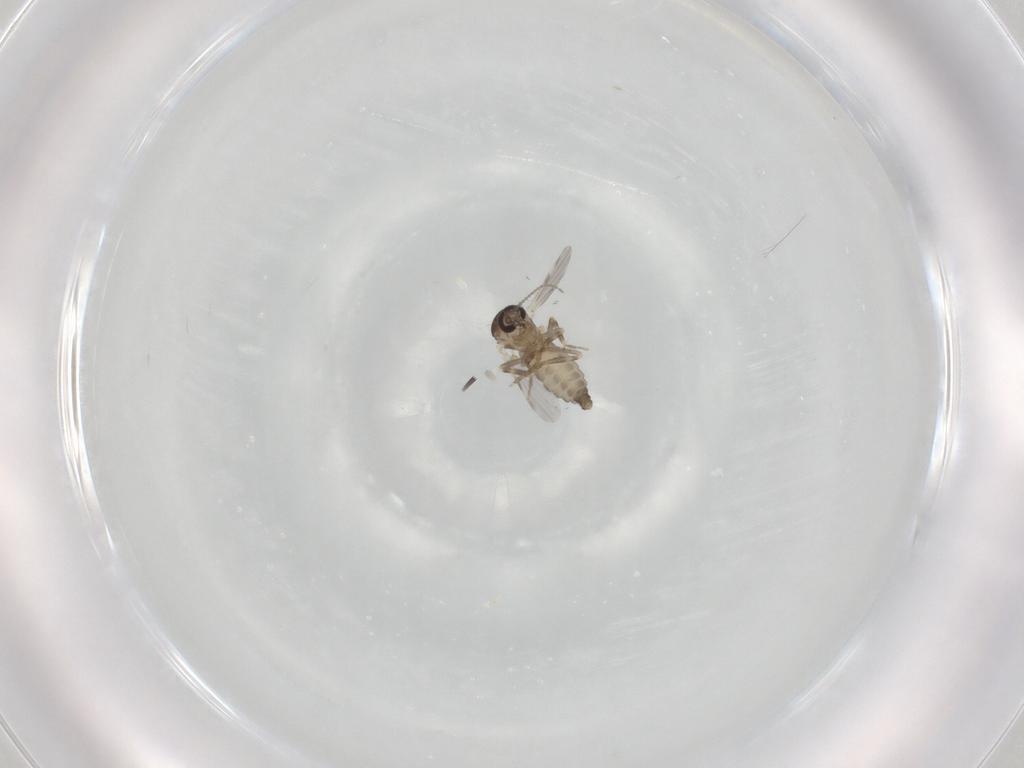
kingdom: Animalia
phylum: Arthropoda
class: Insecta
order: Diptera
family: Ceratopogonidae
